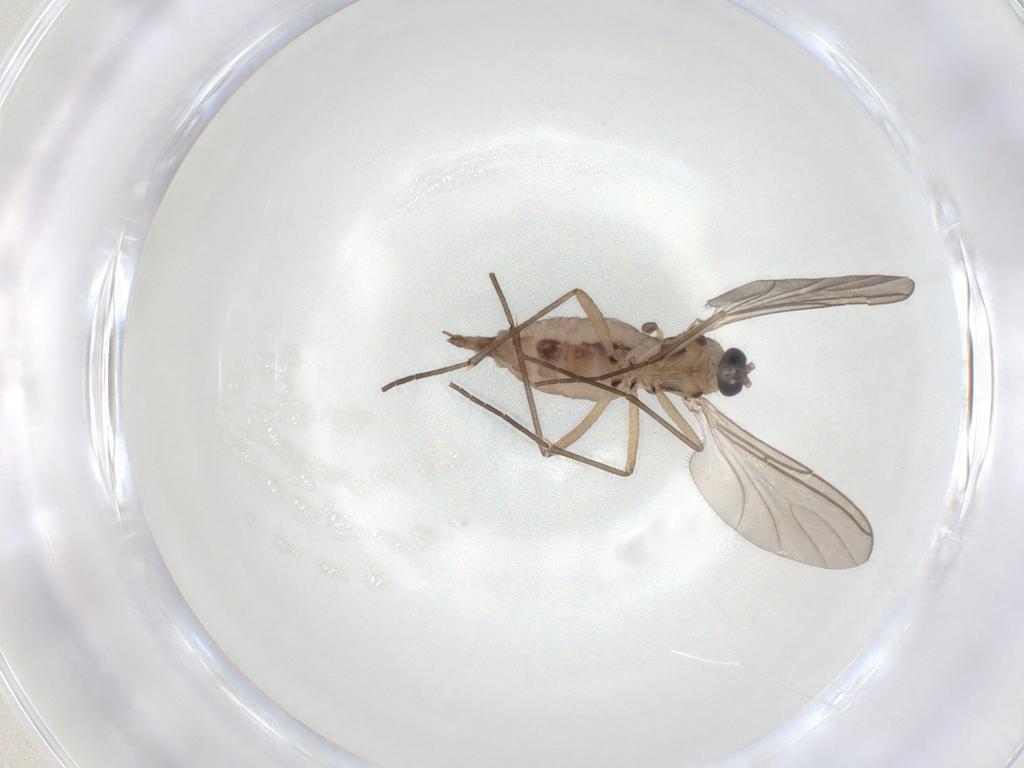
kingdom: Animalia
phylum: Arthropoda
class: Insecta
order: Diptera
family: Sciaridae
